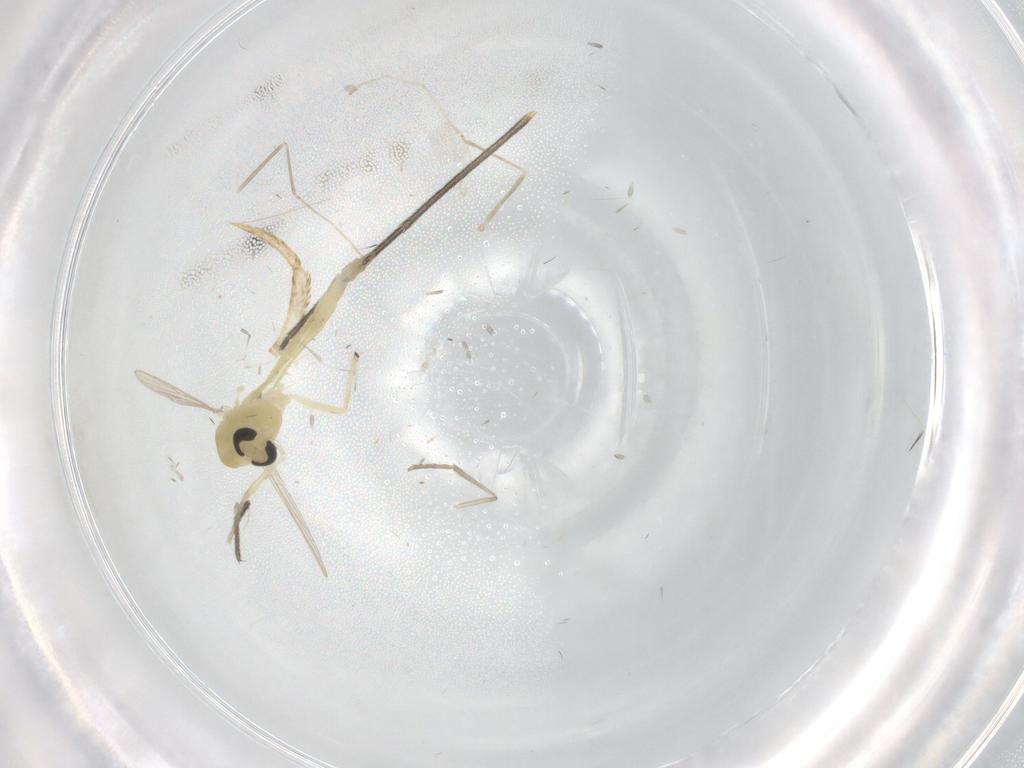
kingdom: Animalia
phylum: Arthropoda
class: Insecta
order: Diptera
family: Chironomidae
